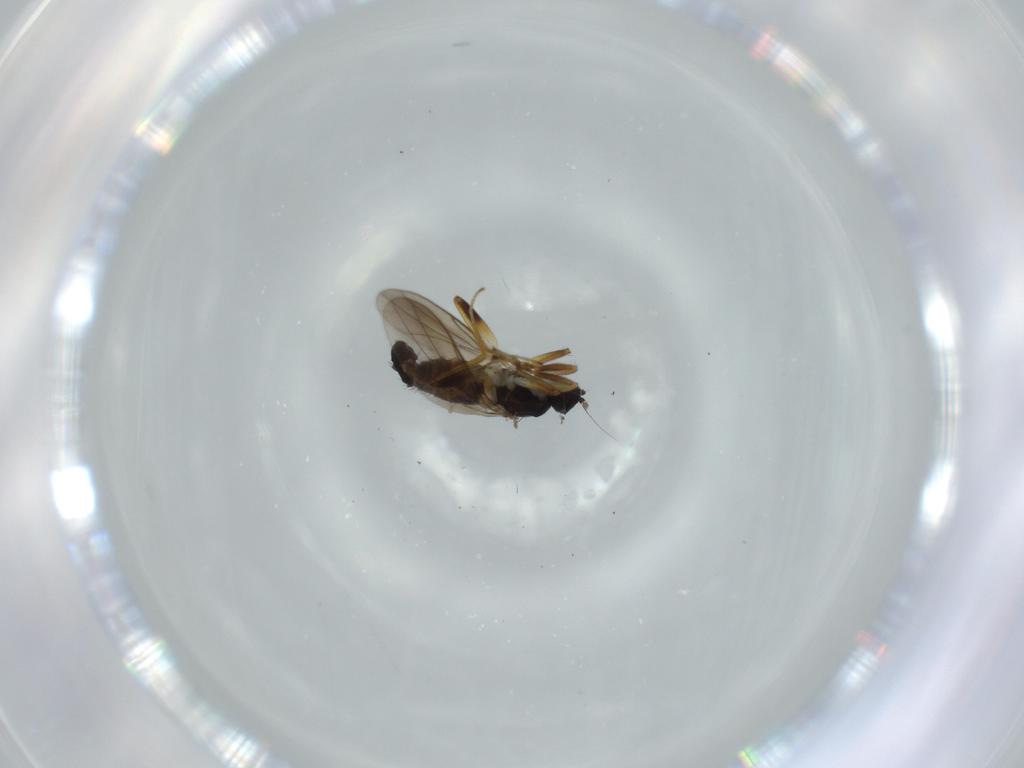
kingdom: Animalia
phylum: Arthropoda
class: Insecta
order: Diptera
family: Hybotidae
